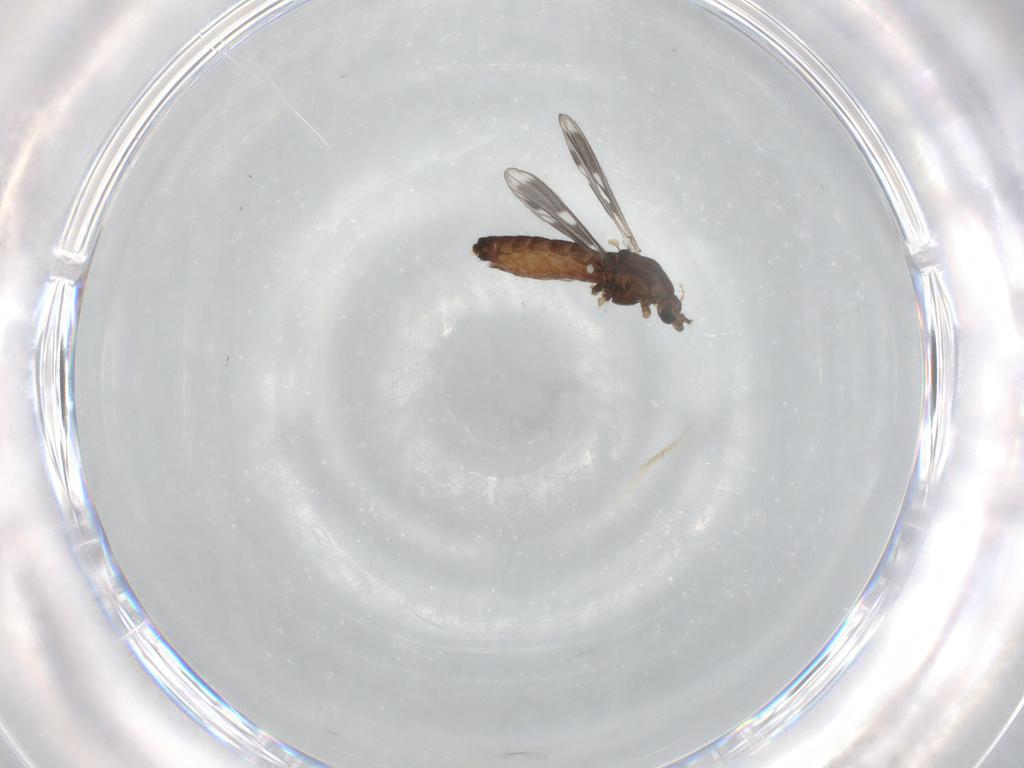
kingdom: Animalia
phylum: Arthropoda
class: Insecta
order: Diptera
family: Chironomidae
